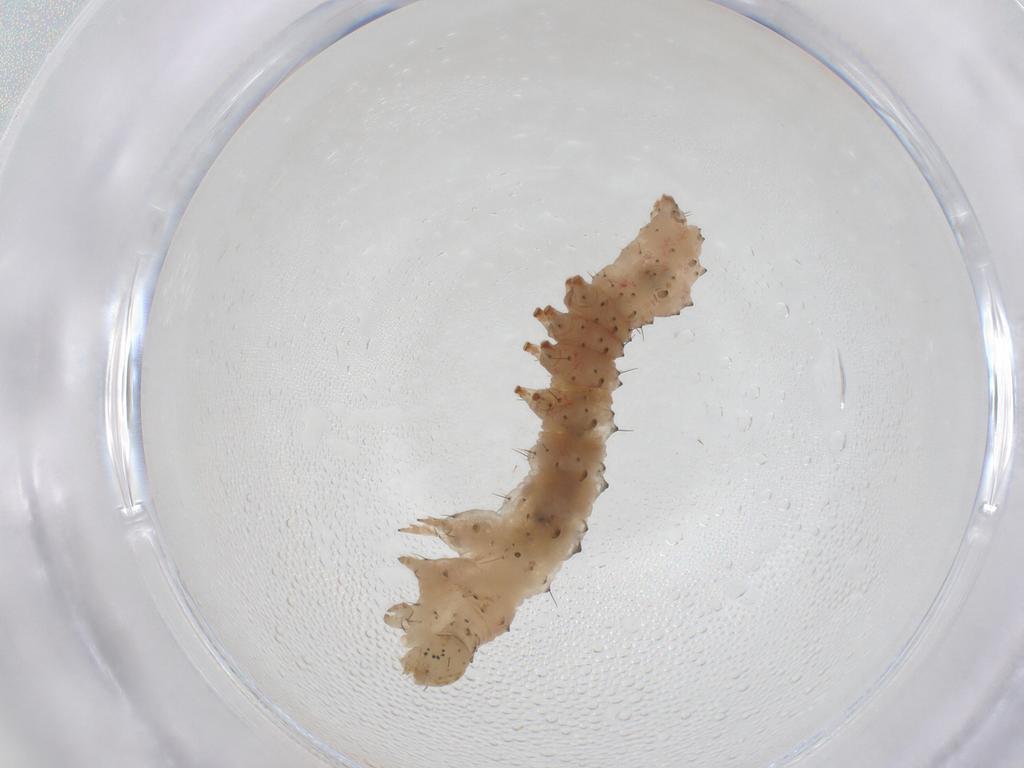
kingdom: Animalia
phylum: Arthropoda
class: Insecta
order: Lepidoptera
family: Erebidae
